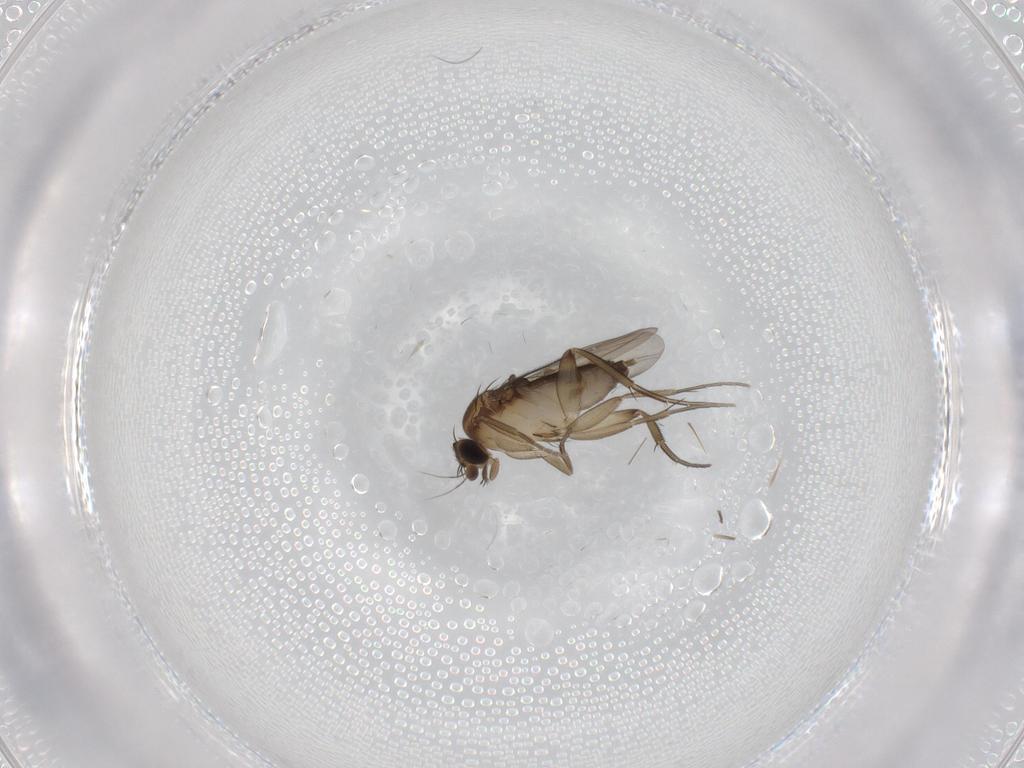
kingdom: Animalia
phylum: Arthropoda
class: Insecta
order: Diptera
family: Phoridae
